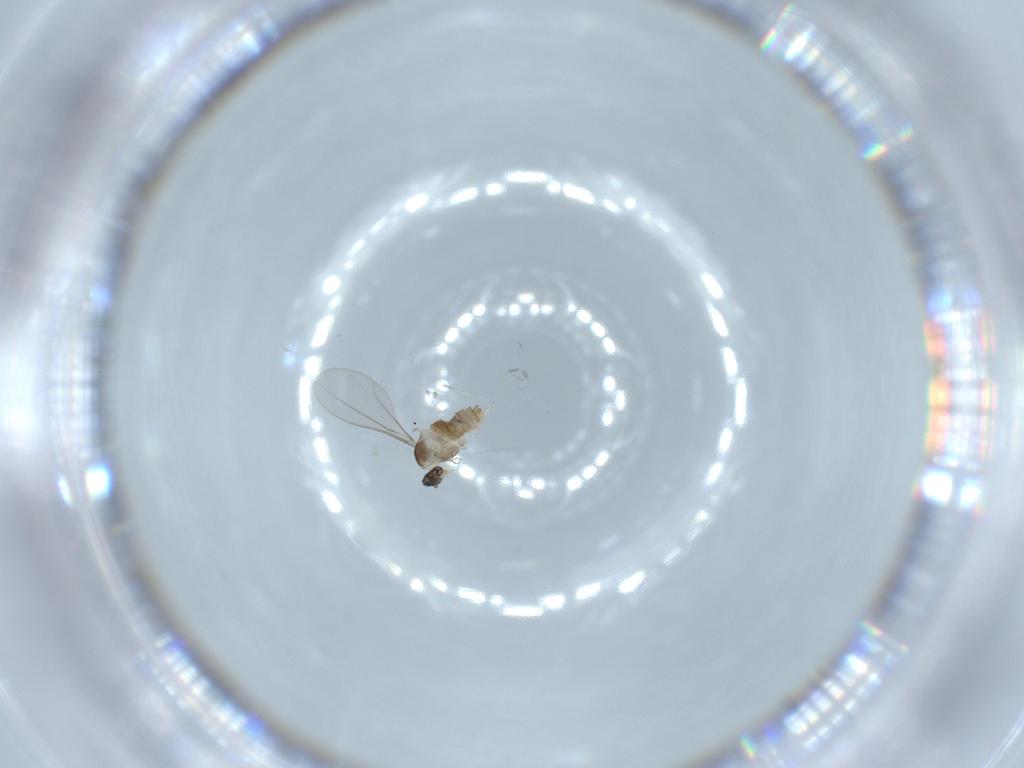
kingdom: Animalia
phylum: Arthropoda
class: Insecta
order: Diptera
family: Cecidomyiidae
